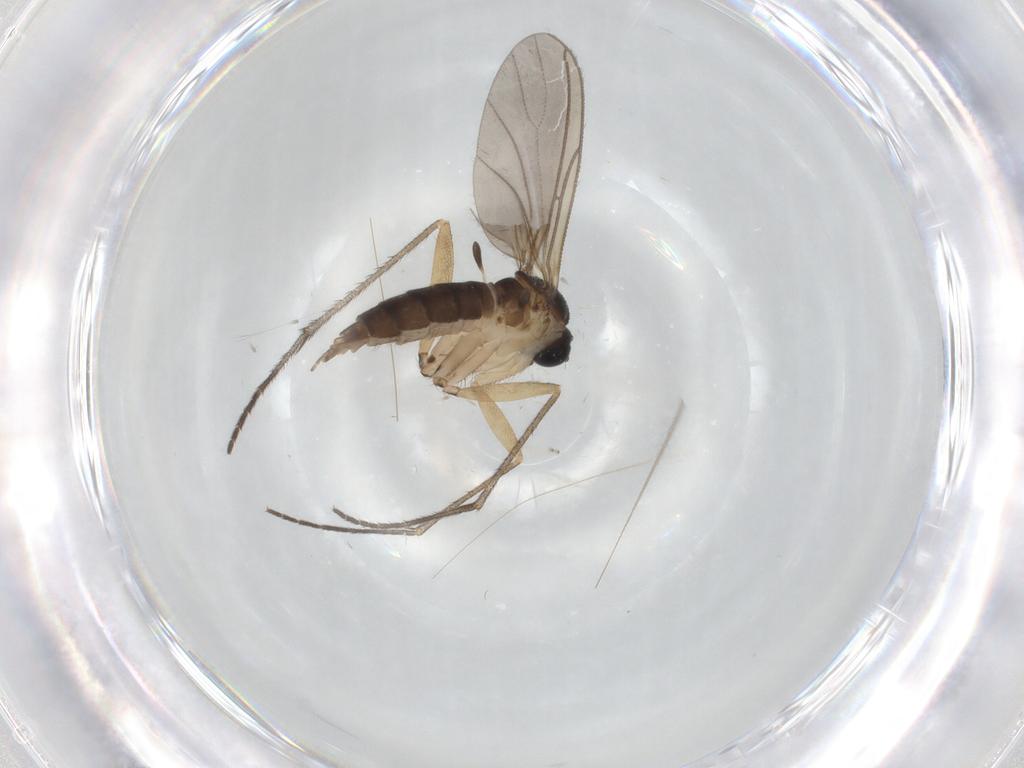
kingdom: Animalia
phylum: Arthropoda
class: Insecta
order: Diptera
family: Sciaridae
